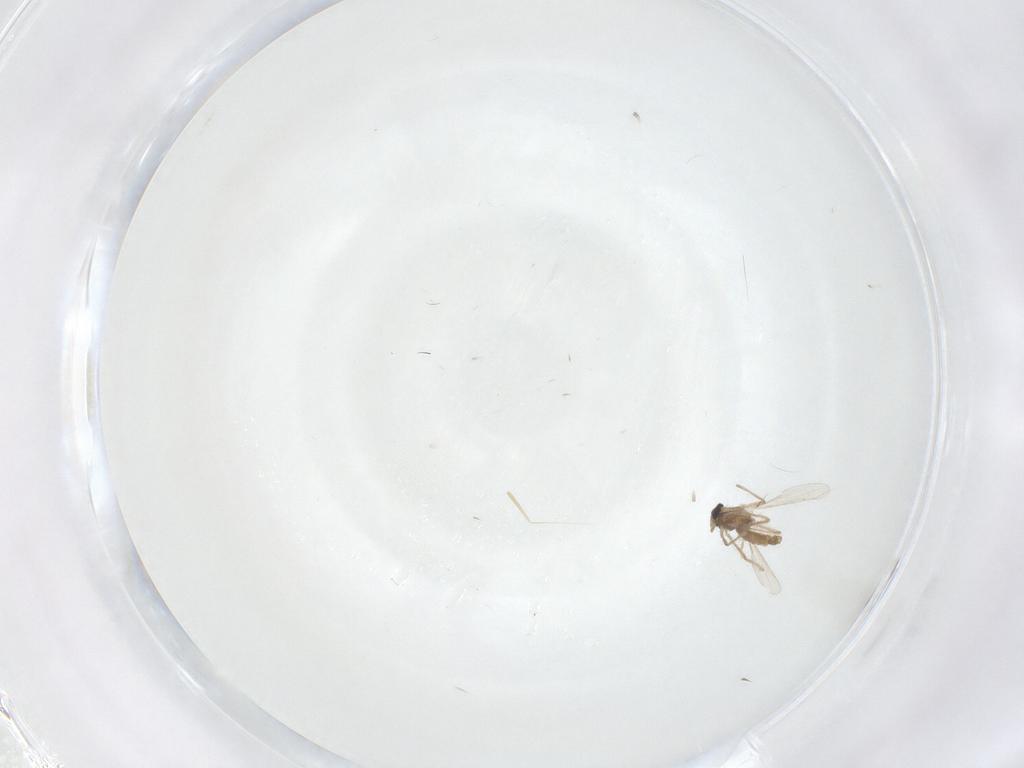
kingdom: Animalia
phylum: Arthropoda
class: Insecta
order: Diptera
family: Chironomidae
